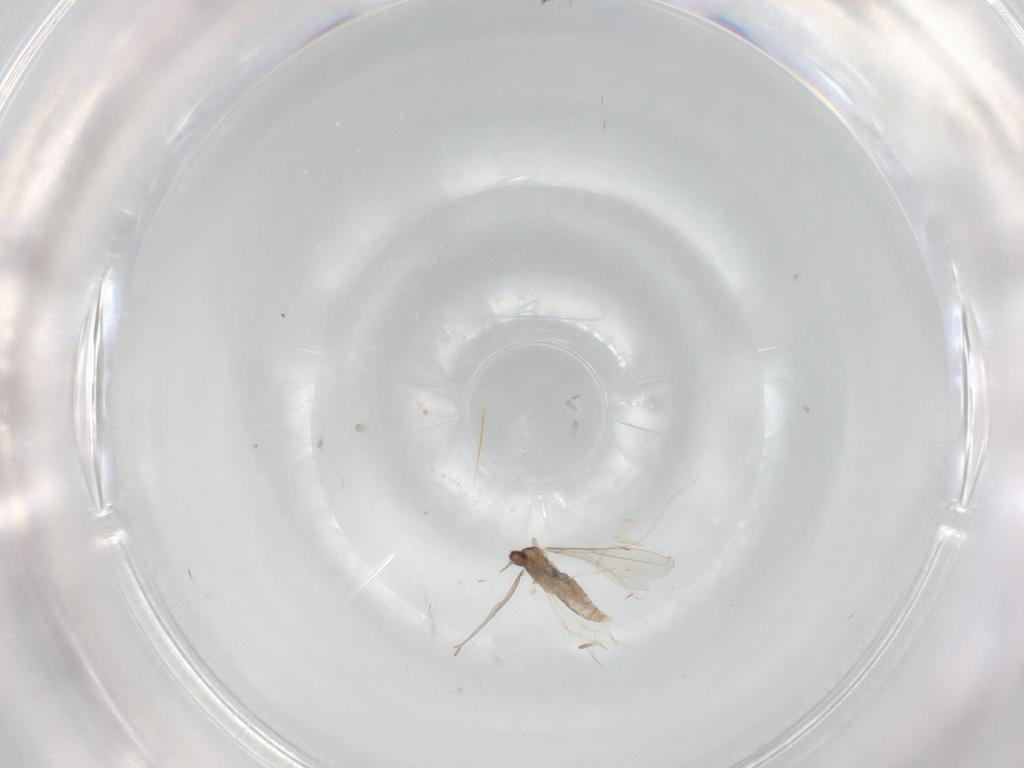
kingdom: Animalia
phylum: Arthropoda
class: Insecta
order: Diptera
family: Cecidomyiidae
